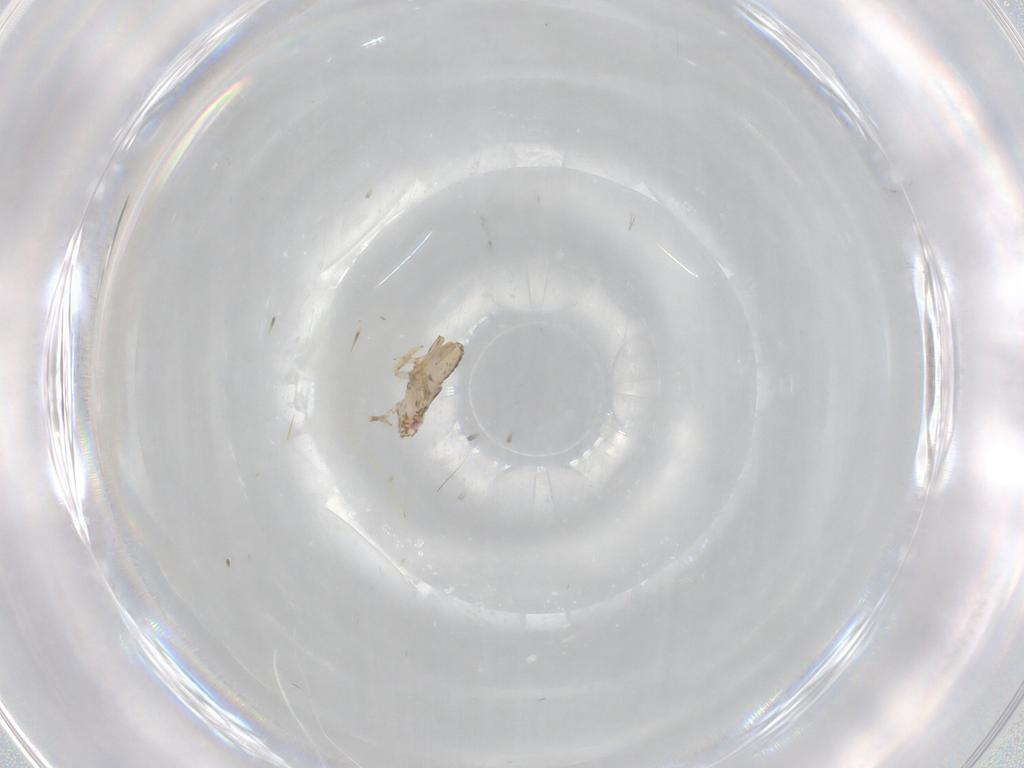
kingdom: Animalia
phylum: Arthropoda
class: Insecta
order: Hemiptera
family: Delphacidae
